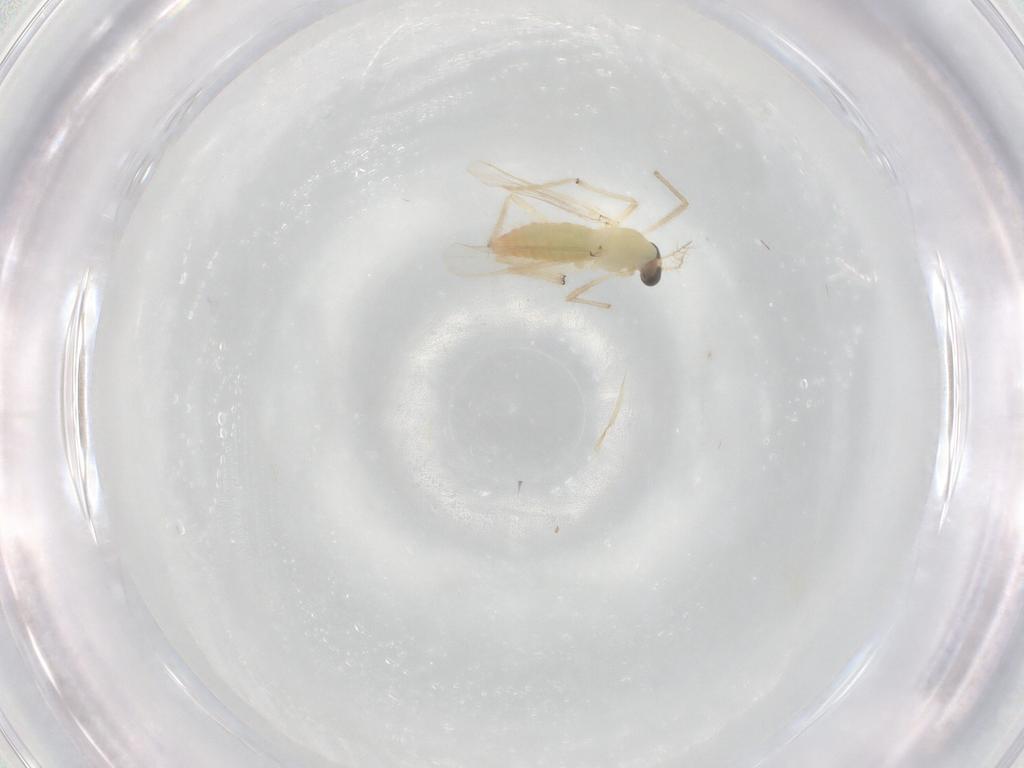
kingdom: Animalia
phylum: Arthropoda
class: Insecta
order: Diptera
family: Chironomidae
